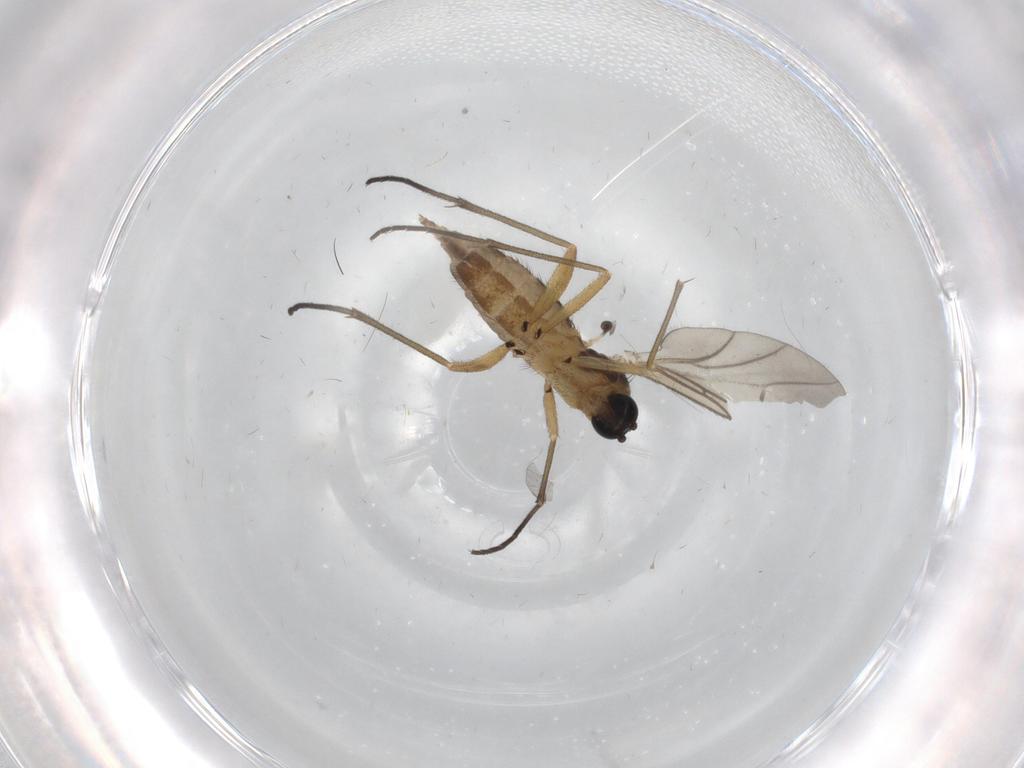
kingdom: Animalia
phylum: Arthropoda
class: Insecta
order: Diptera
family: Sciaridae
